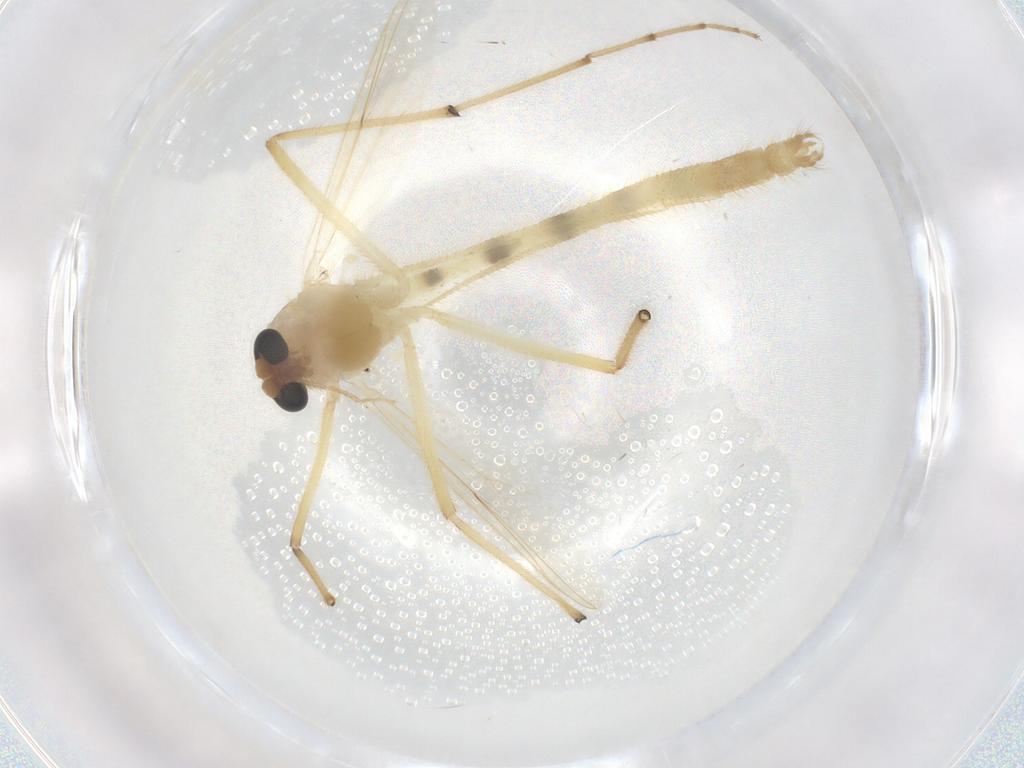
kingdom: Animalia
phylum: Arthropoda
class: Insecta
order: Diptera
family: Chironomidae
